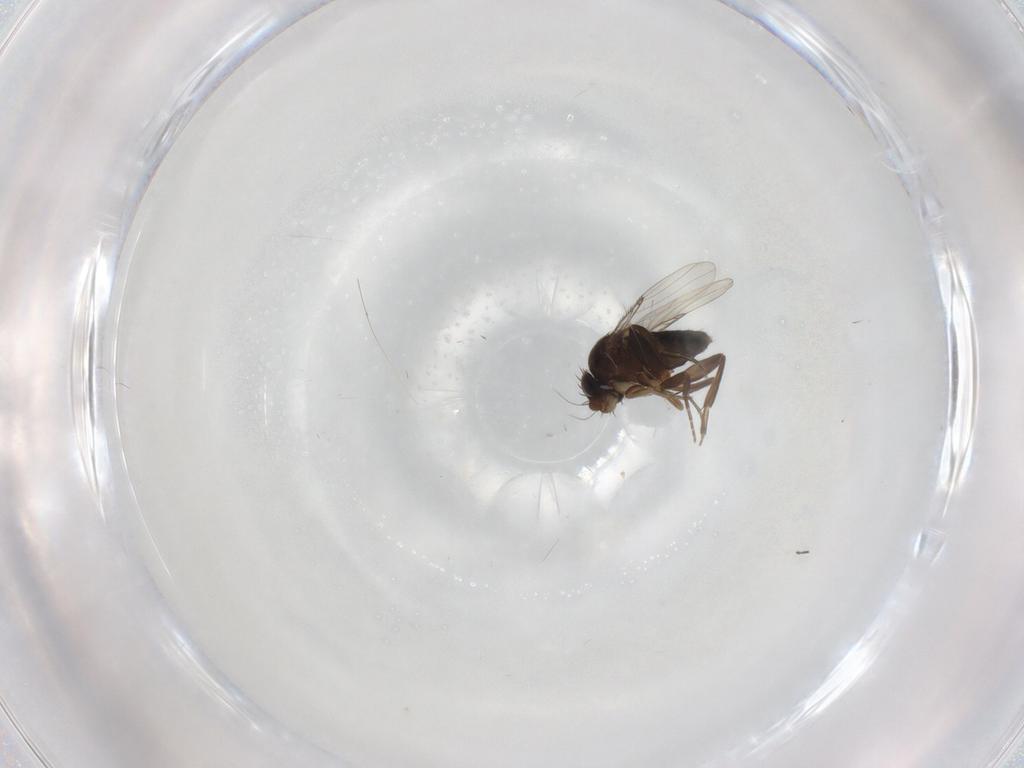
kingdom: Animalia
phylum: Arthropoda
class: Insecta
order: Diptera
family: Phoridae
